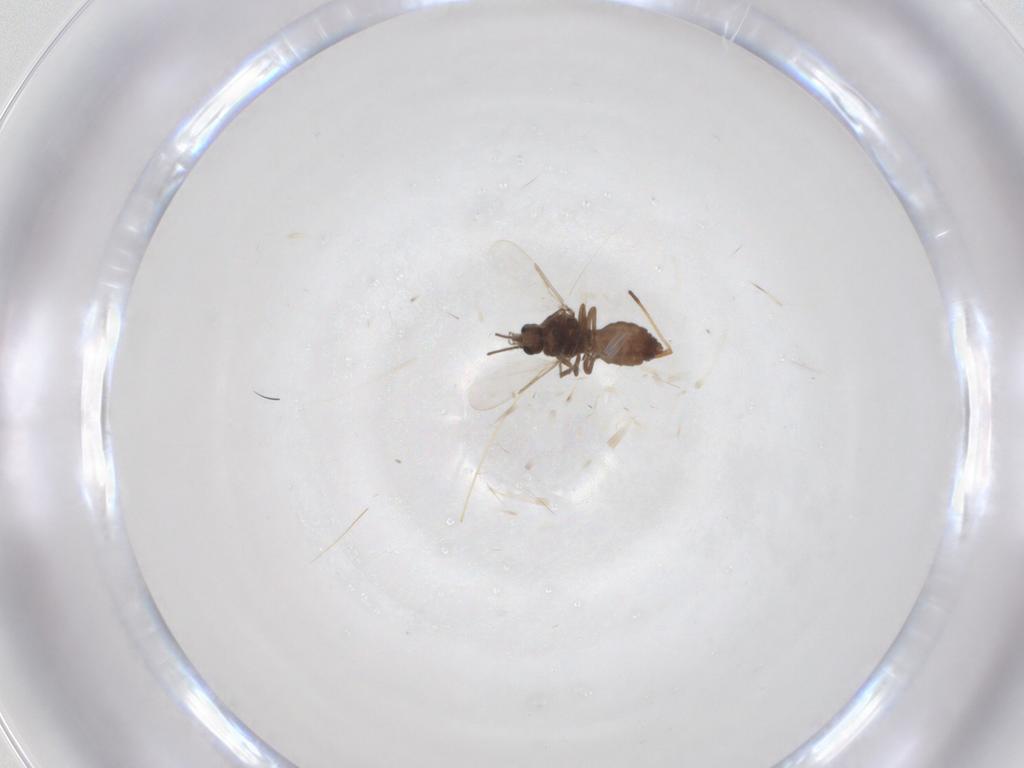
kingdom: Animalia
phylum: Arthropoda
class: Insecta
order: Diptera
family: Ceratopogonidae
